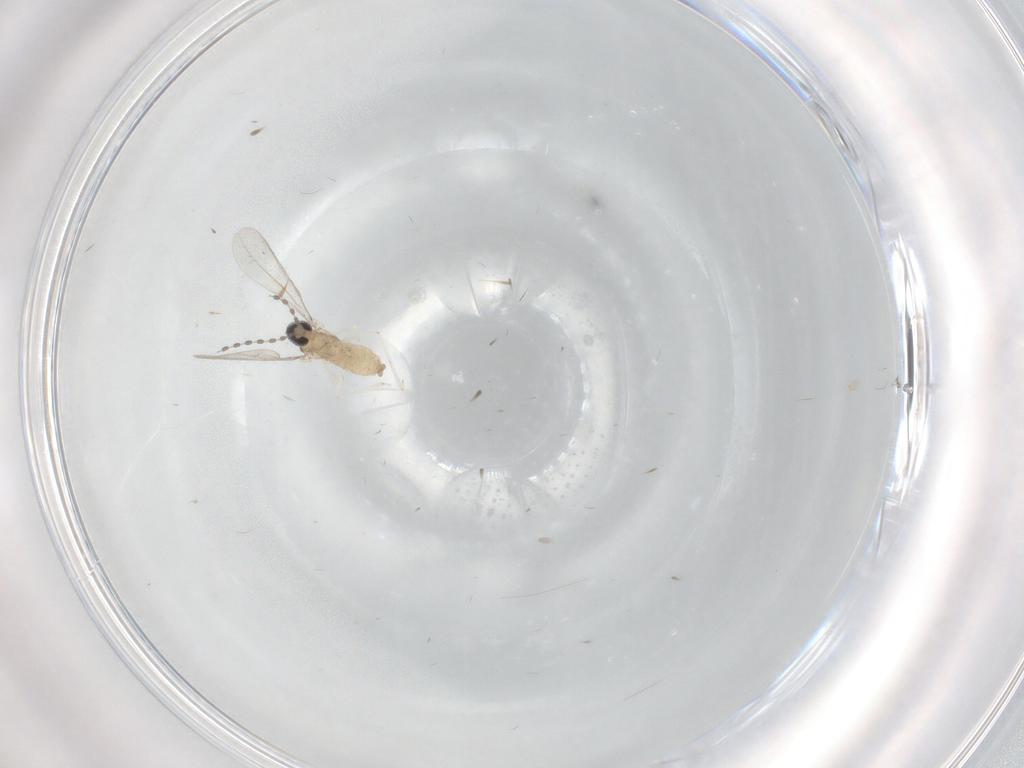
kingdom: Animalia
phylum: Arthropoda
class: Insecta
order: Diptera
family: Cecidomyiidae
